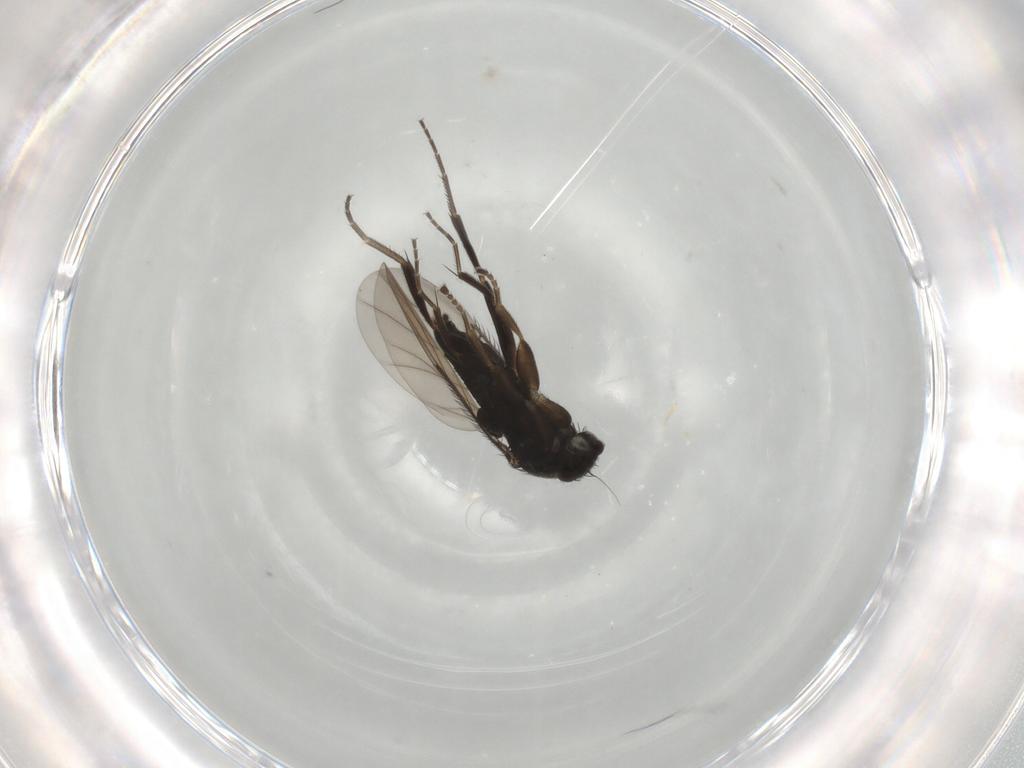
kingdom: Animalia
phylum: Arthropoda
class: Insecta
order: Diptera
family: Phoridae
